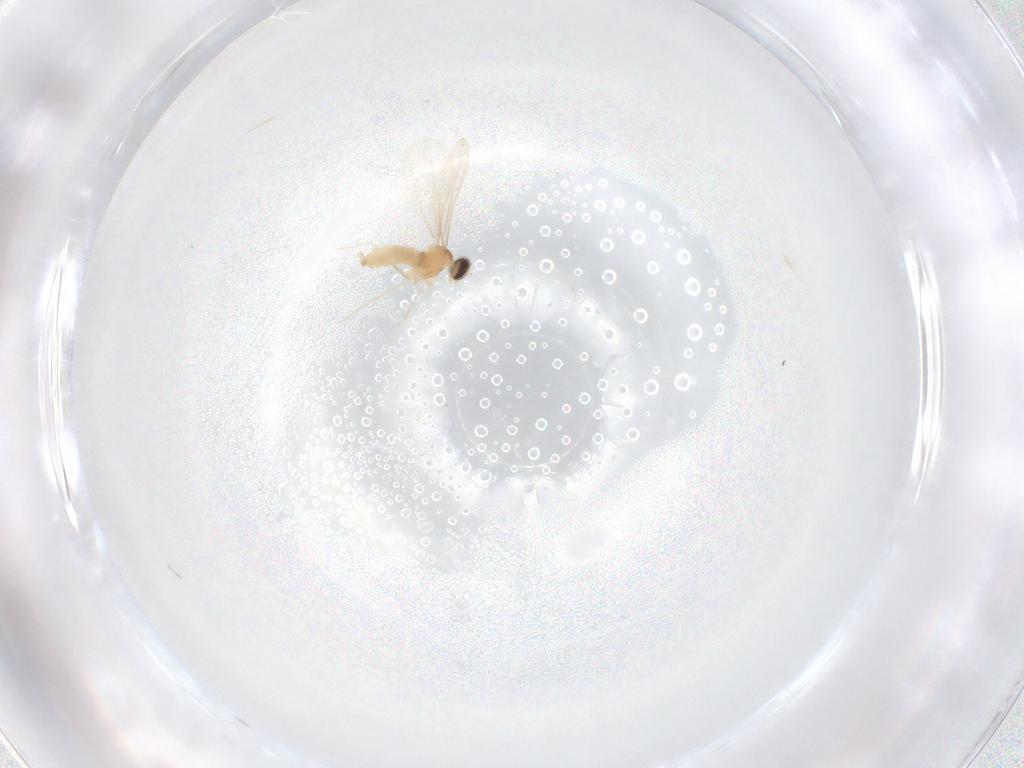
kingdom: Animalia
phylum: Arthropoda
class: Insecta
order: Diptera
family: Cecidomyiidae
